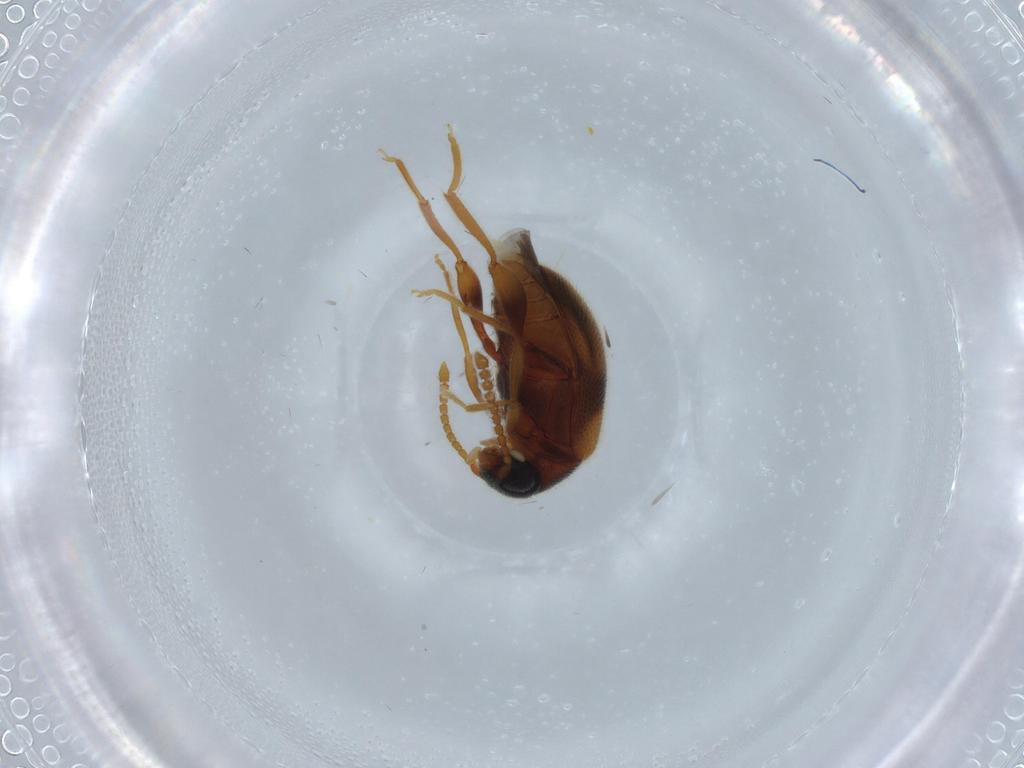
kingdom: Animalia
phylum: Arthropoda
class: Insecta
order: Coleoptera
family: Aderidae
